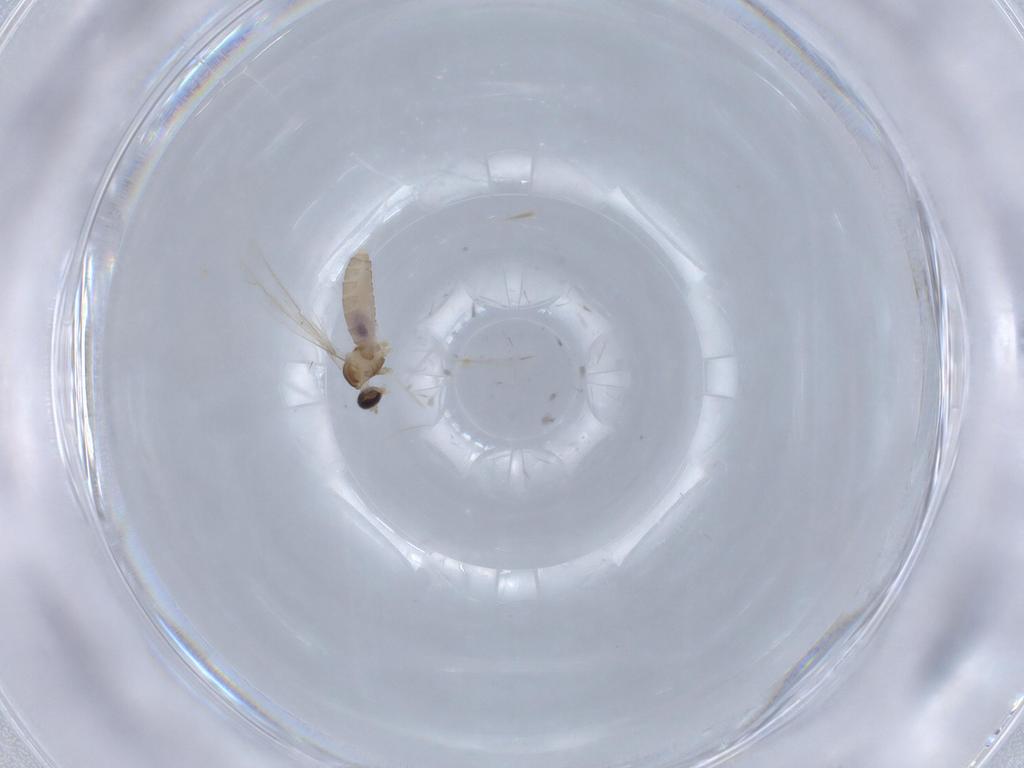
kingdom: Animalia
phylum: Arthropoda
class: Insecta
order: Diptera
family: Cecidomyiidae
